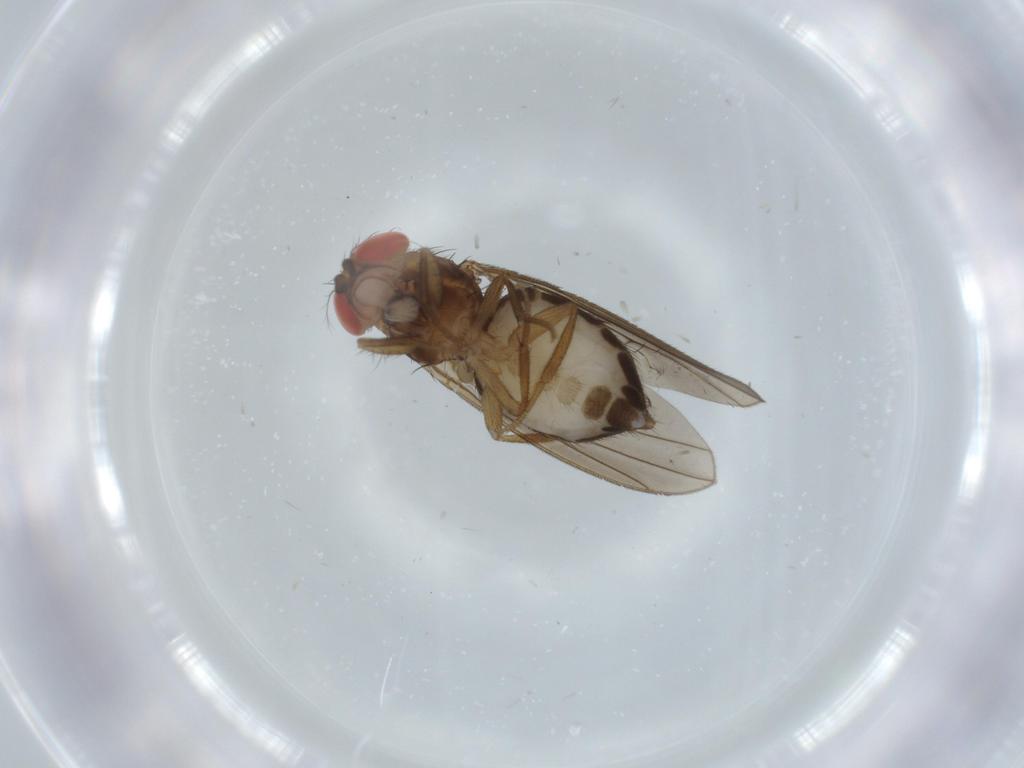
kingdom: Animalia
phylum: Arthropoda
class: Insecta
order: Diptera
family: Drosophilidae
